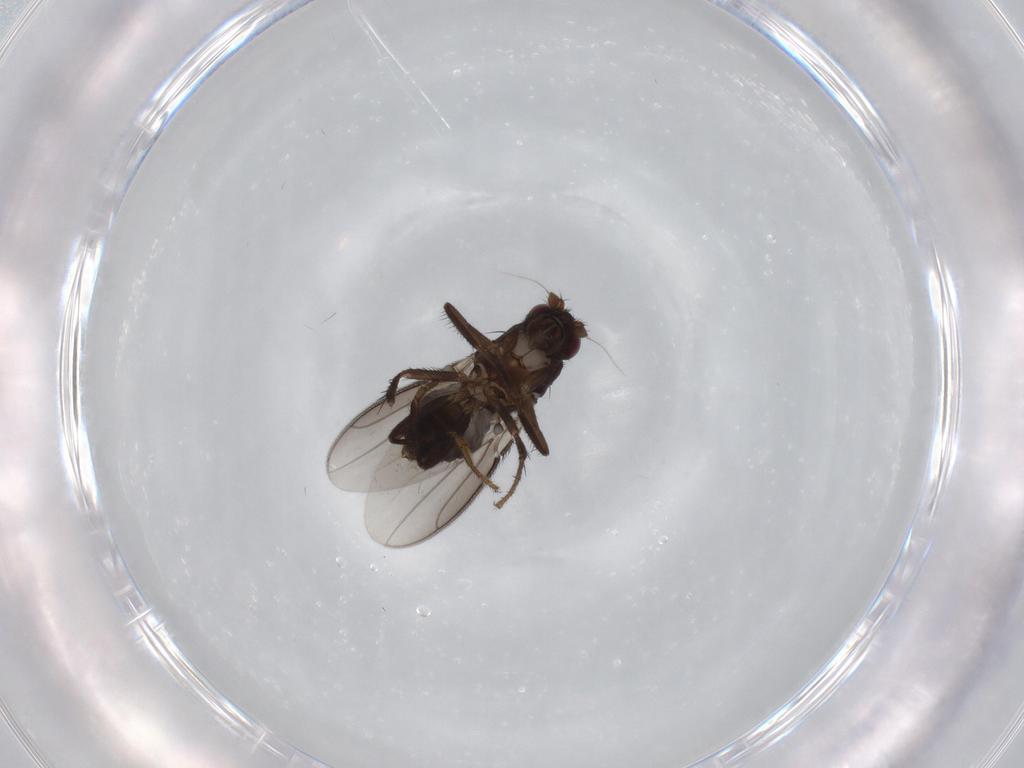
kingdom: Animalia
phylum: Arthropoda
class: Insecta
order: Diptera
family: Sphaeroceridae
